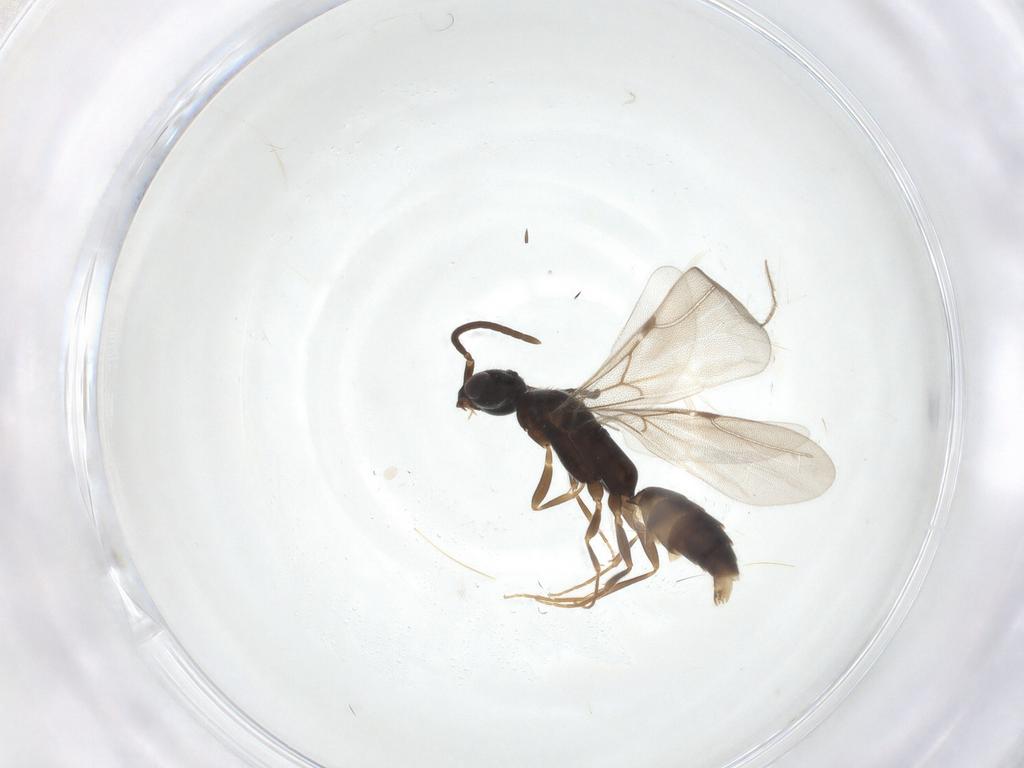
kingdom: Animalia
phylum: Arthropoda
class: Insecta
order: Hymenoptera
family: Bethylidae
